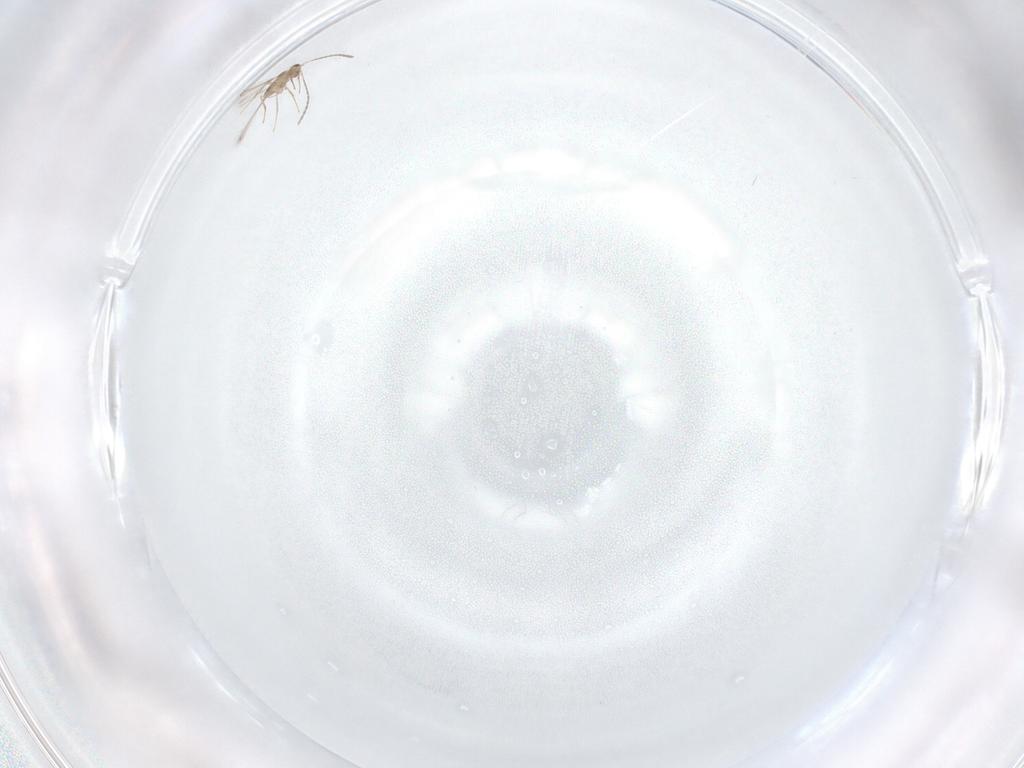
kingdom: Animalia
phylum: Arthropoda
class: Insecta
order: Hymenoptera
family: Mymaridae
